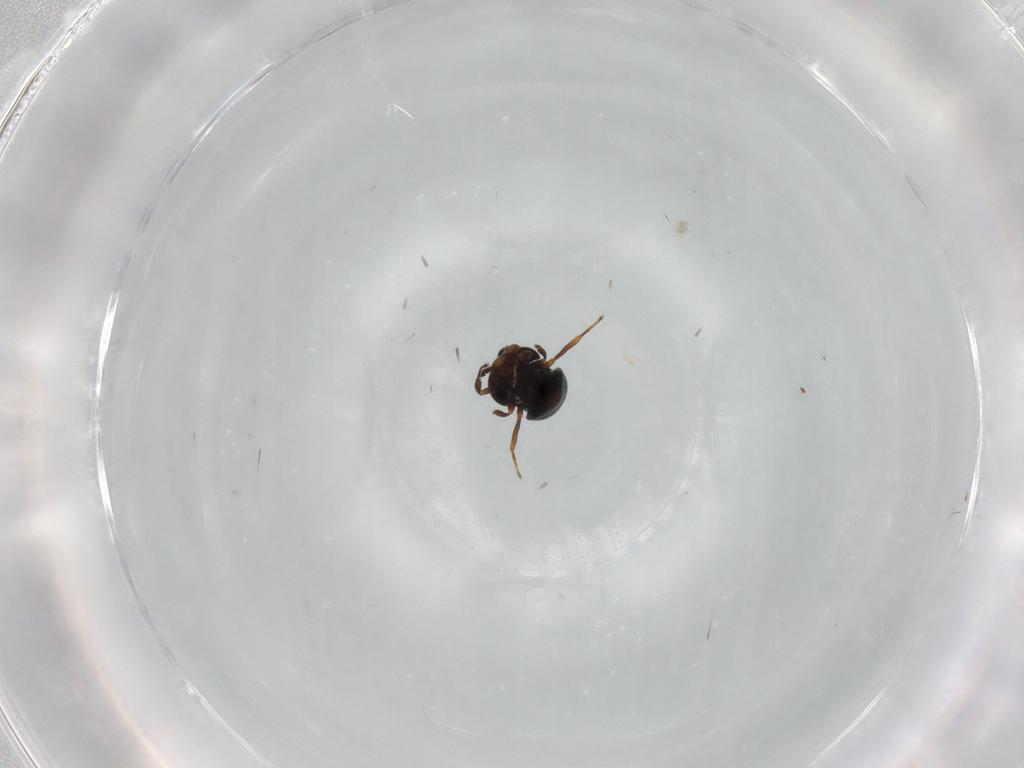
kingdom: Animalia
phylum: Arthropoda
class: Insecta
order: Hymenoptera
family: Scelionidae
